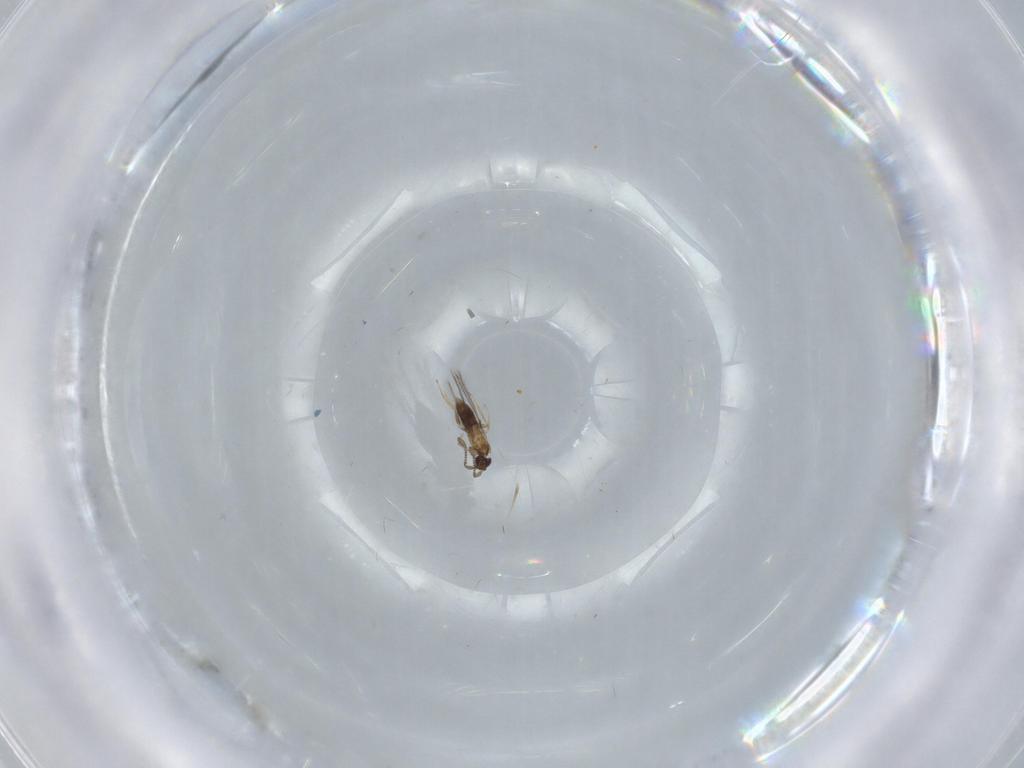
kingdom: Animalia
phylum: Arthropoda
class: Insecta
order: Hymenoptera
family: Mymaridae
